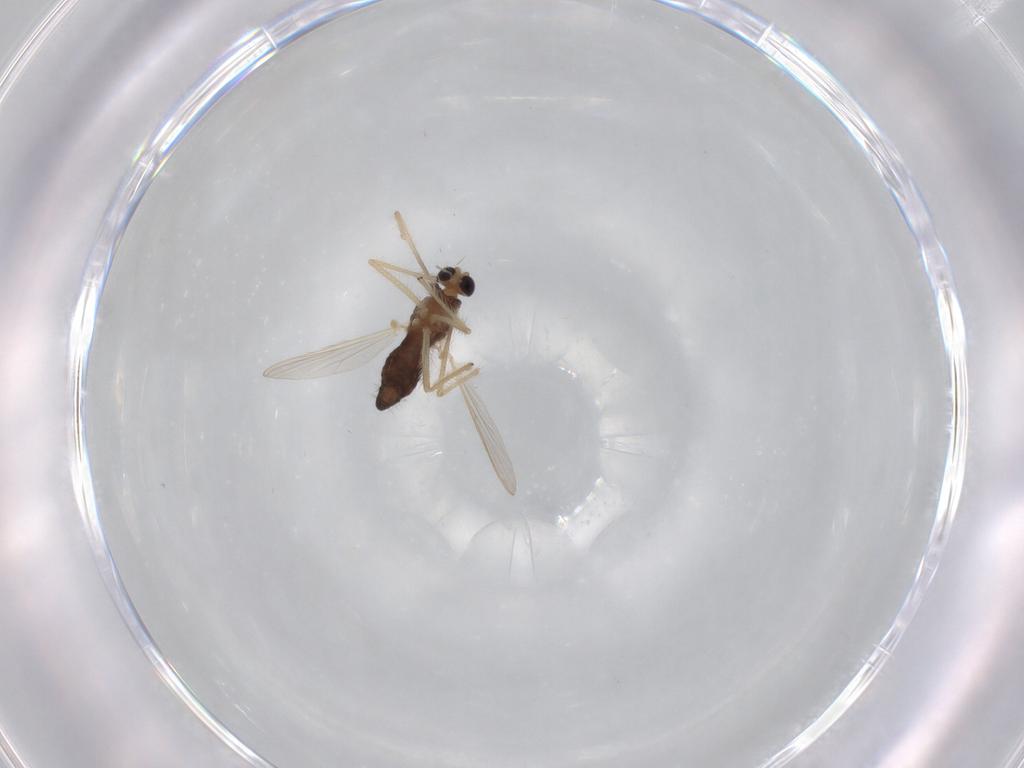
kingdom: Animalia
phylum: Arthropoda
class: Insecta
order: Diptera
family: Chironomidae
